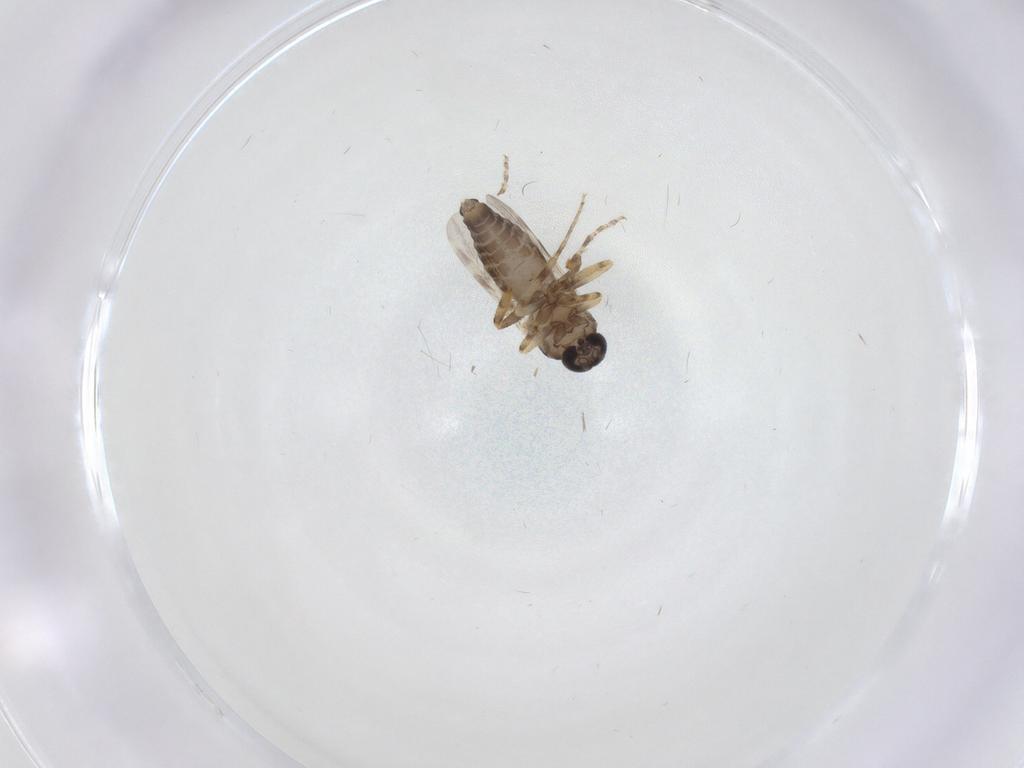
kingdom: Animalia
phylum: Arthropoda
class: Insecta
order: Diptera
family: Ceratopogonidae
